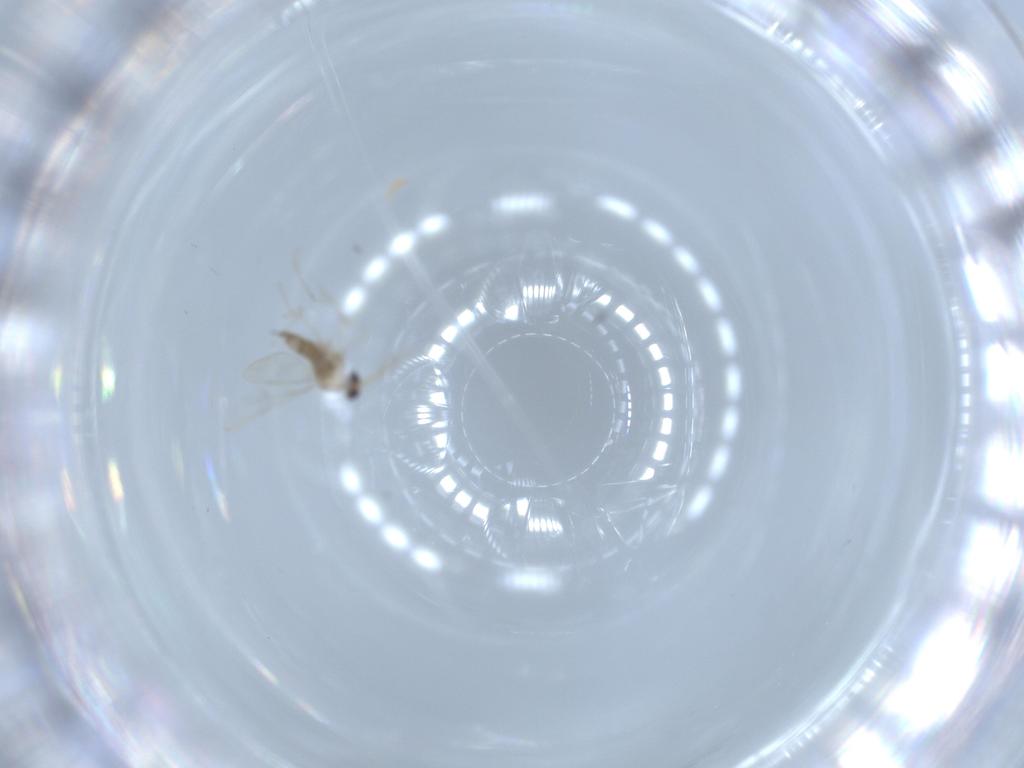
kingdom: Animalia
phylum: Arthropoda
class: Insecta
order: Diptera
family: Cecidomyiidae
